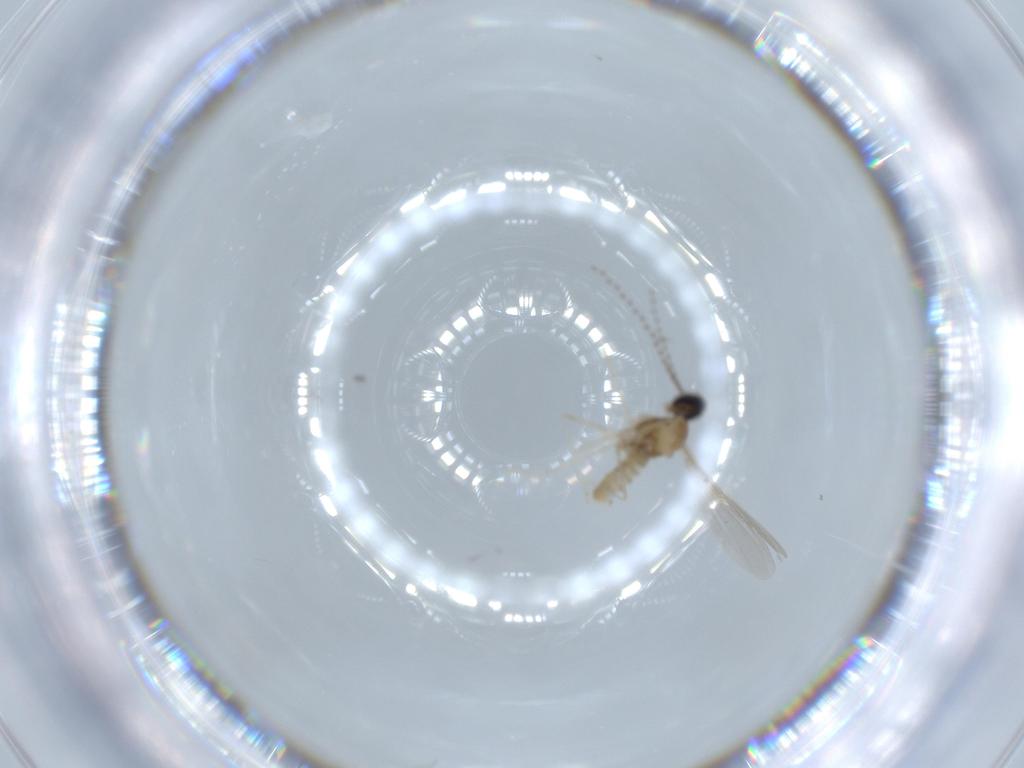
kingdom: Animalia
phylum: Arthropoda
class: Insecta
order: Diptera
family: Cecidomyiidae
